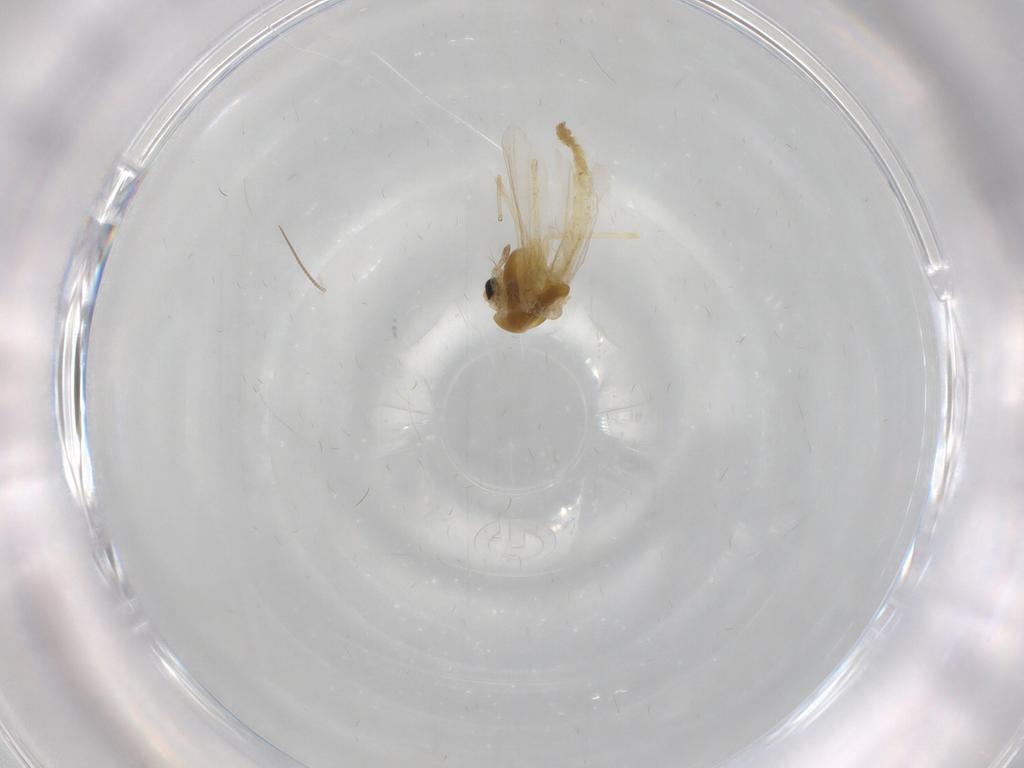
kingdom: Animalia
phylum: Arthropoda
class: Insecta
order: Diptera
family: Chironomidae
